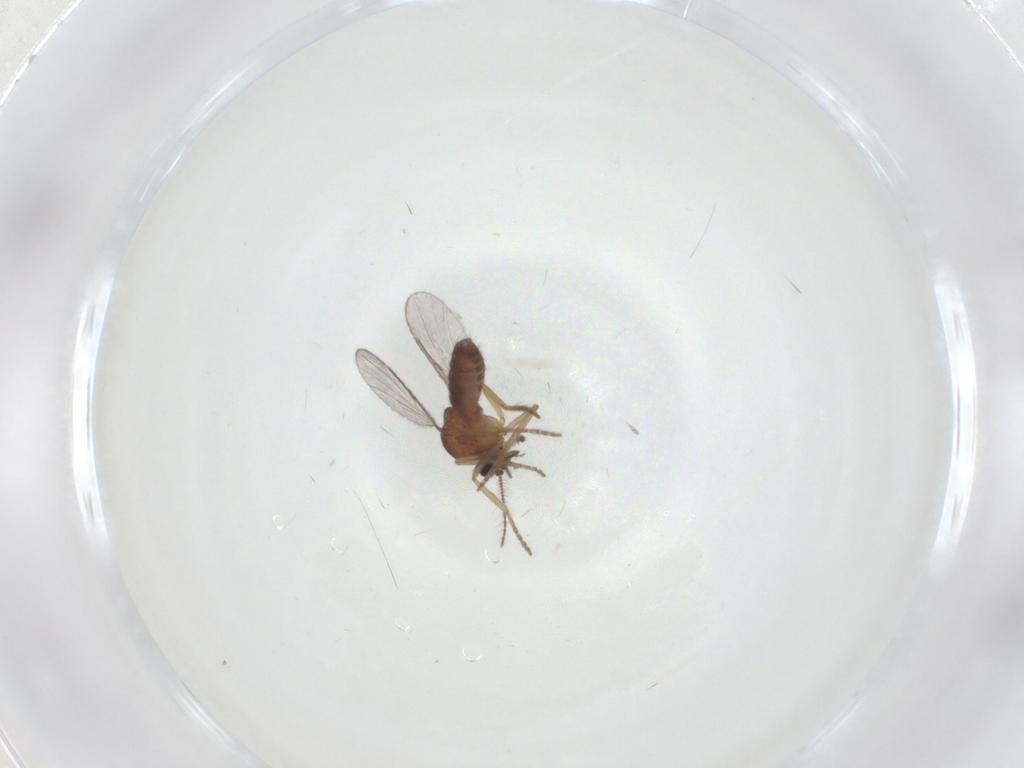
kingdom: Animalia
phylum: Arthropoda
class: Insecta
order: Diptera
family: Ceratopogonidae
